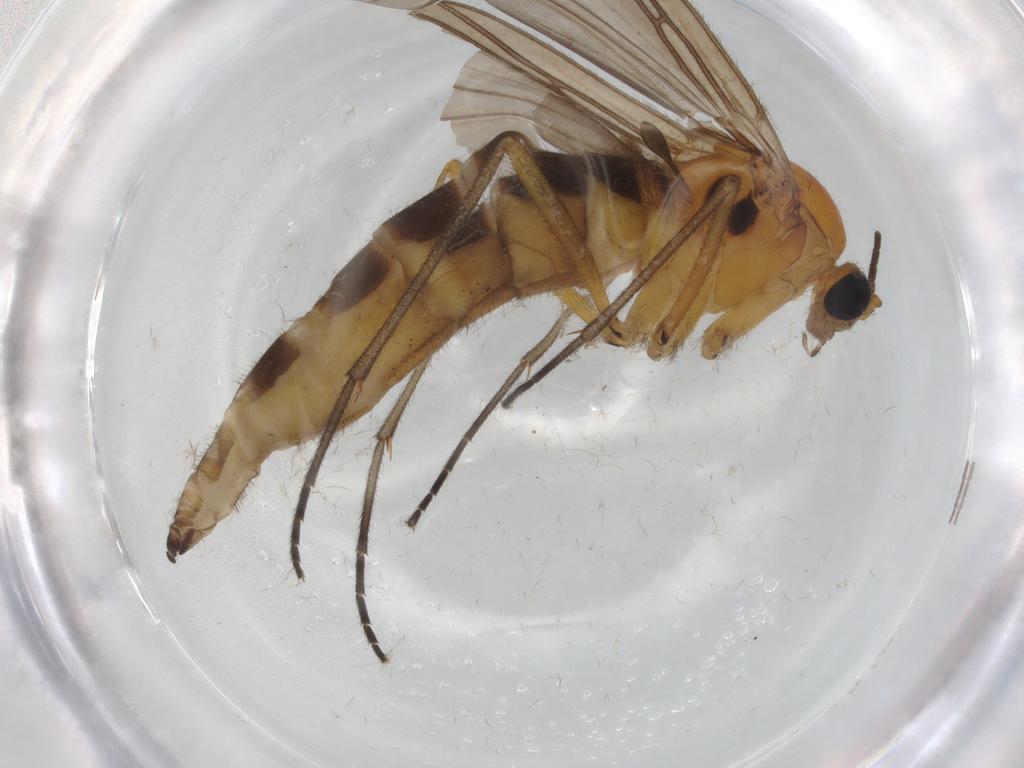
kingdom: Animalia
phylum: Arthropoda
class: Insecta
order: Diptera
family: Sciaridae
